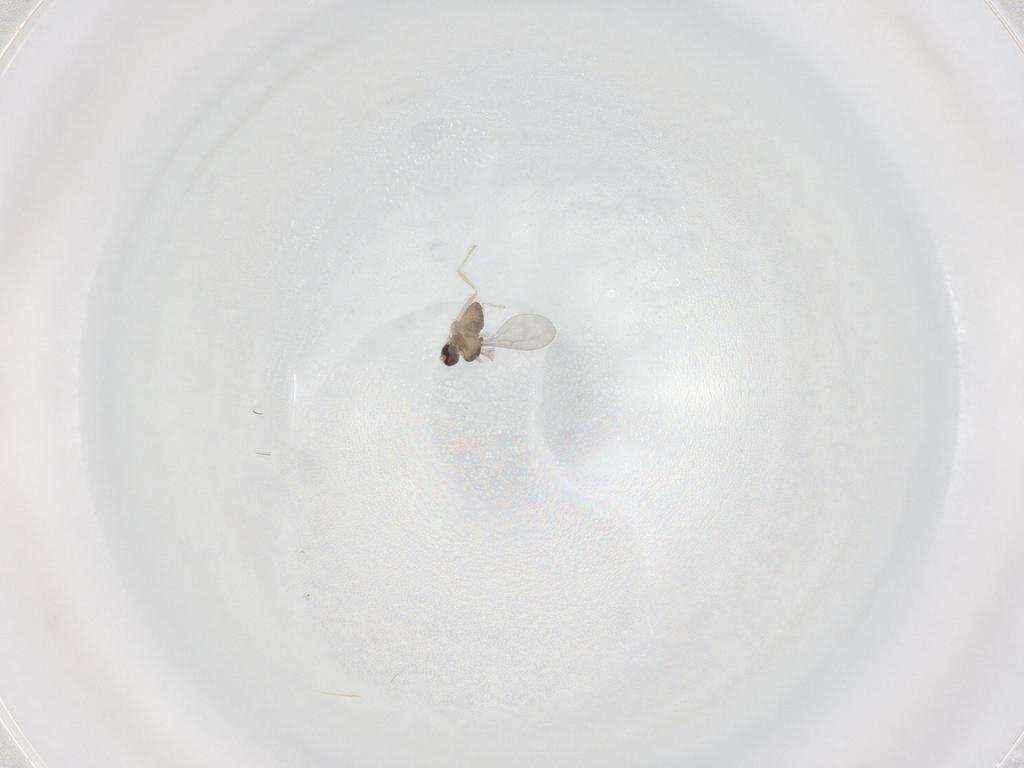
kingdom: Animalia
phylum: Arthropoda
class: Insecta
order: Diptera
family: Cecidomyiidae
